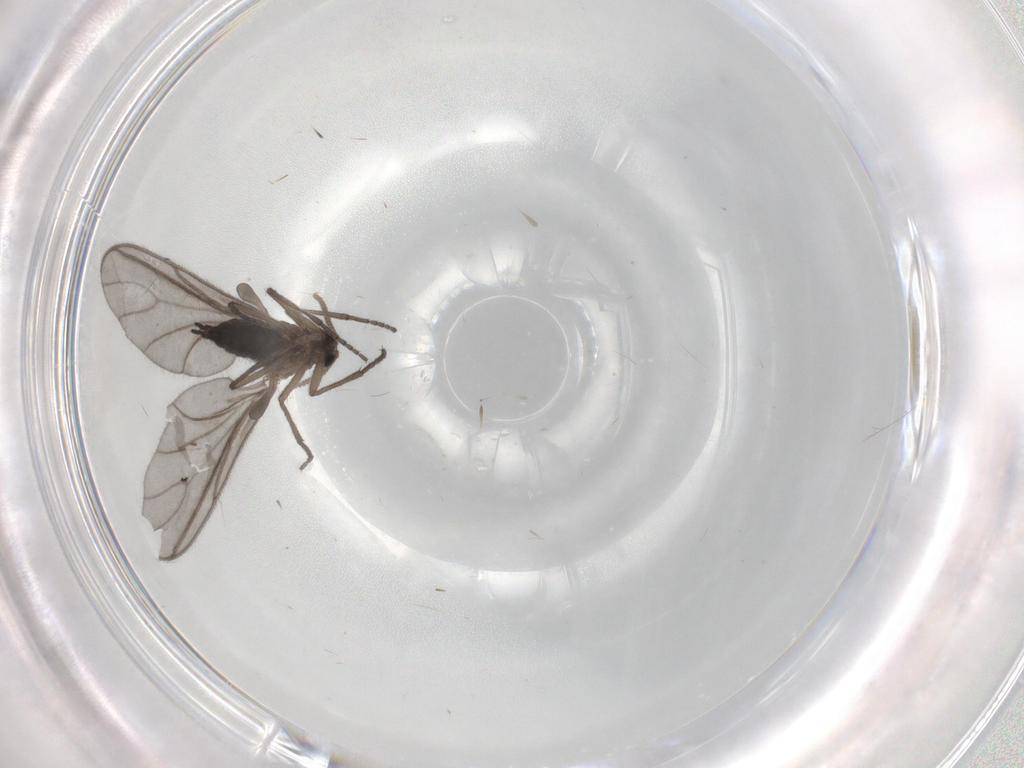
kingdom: Animalia
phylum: Arthropoda
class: Insecta
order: Diptera
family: Sciaridae
